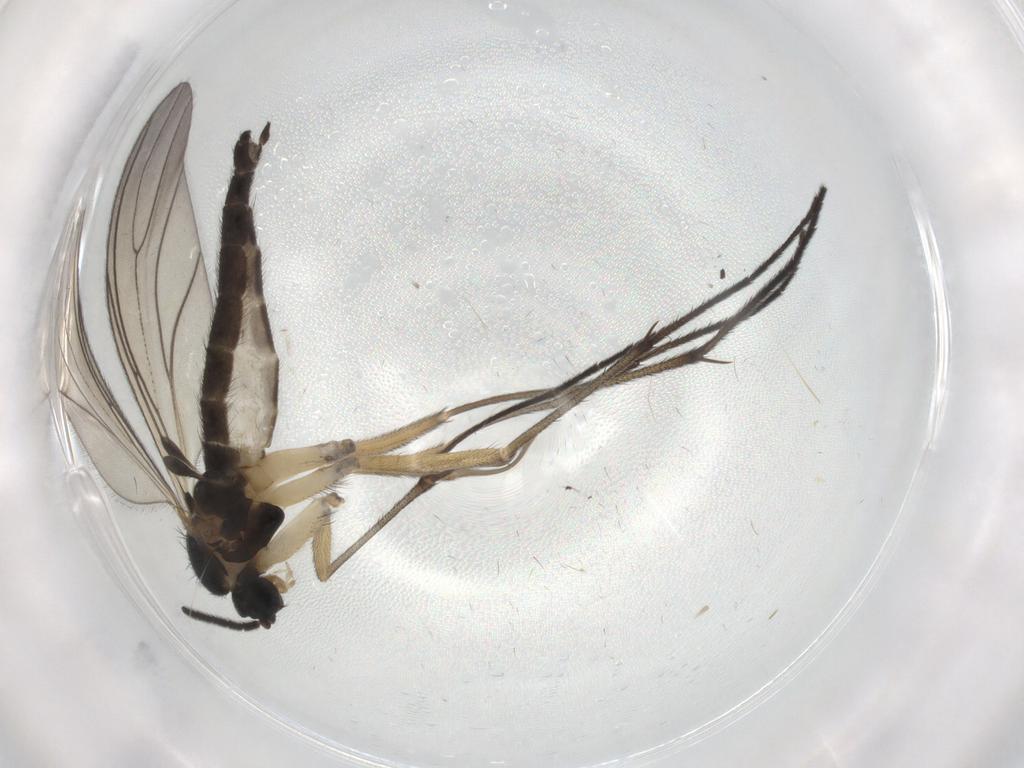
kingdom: Animalia
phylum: Arthropoda
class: Insecta
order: Diptera
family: Sciaridae
